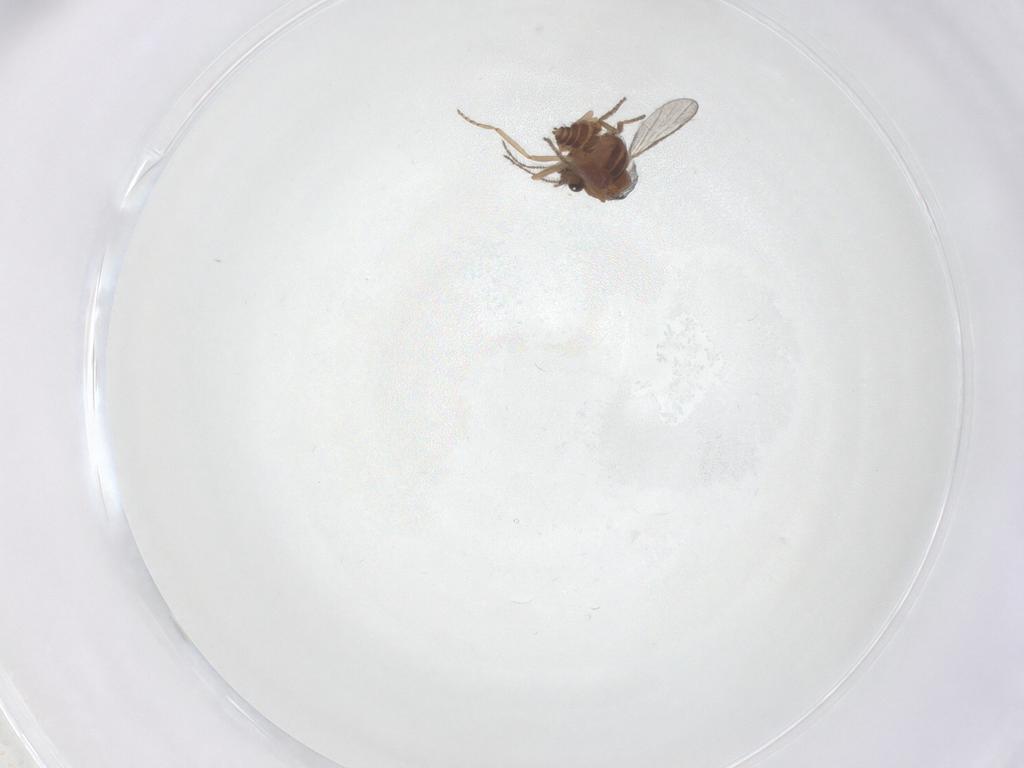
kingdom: Animalia
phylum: Arthropoda
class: Insecta
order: Diptera
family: Ceratopogonidae
